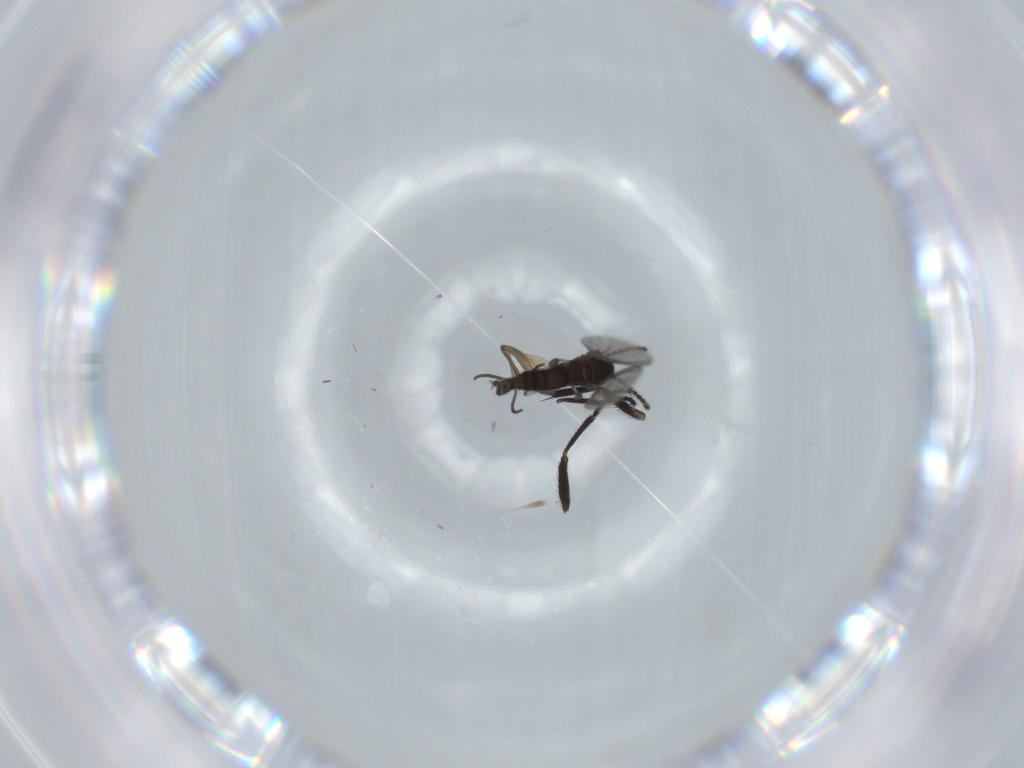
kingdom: Animalia
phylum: Arthropoda
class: Insecta
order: Diptera
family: Sciaridae
